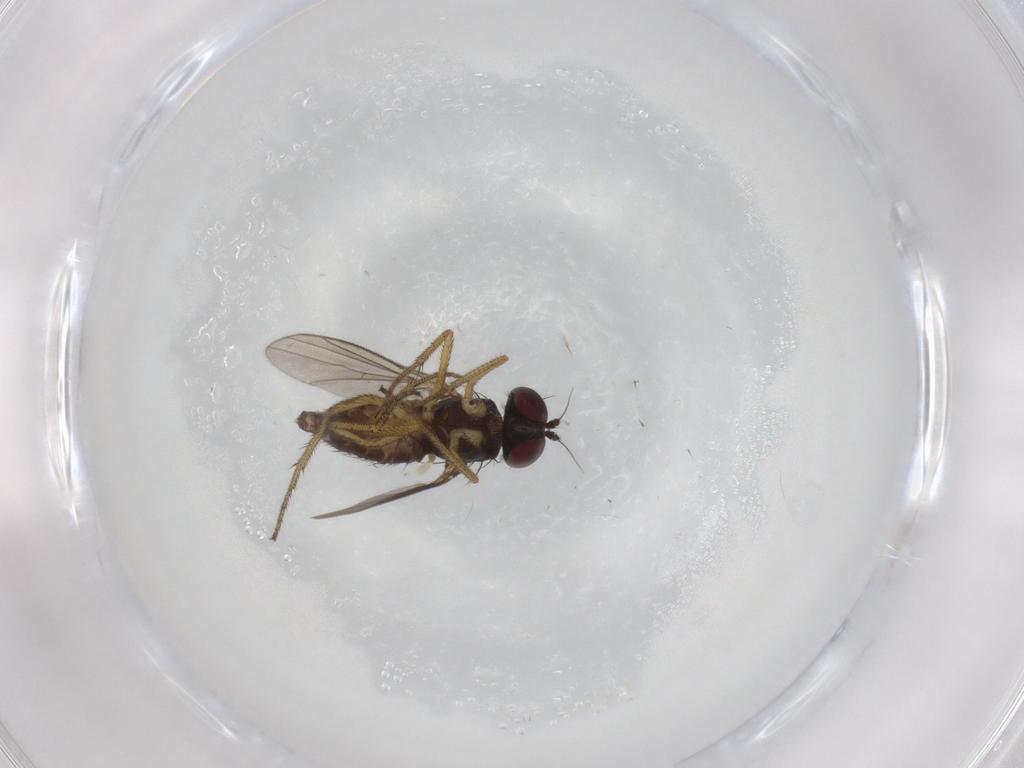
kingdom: Animalia
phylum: Arthropoda
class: Insecta
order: Diptera
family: Dolichopodidae
